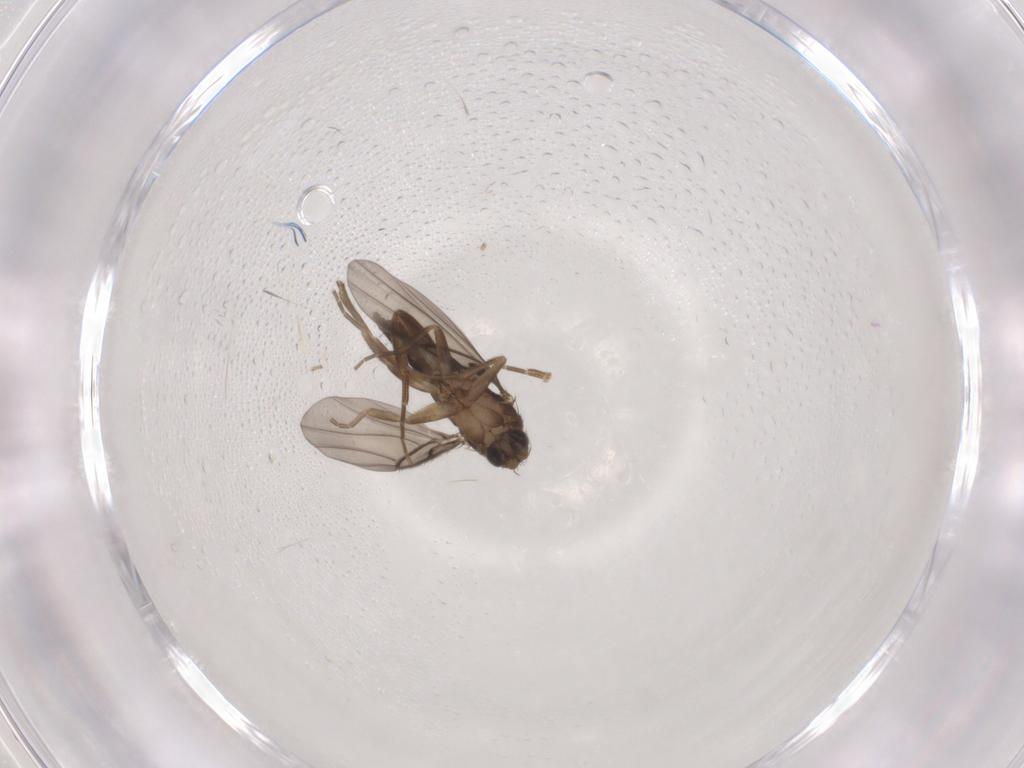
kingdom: Animalia
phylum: Arthropoda
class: Insecta
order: Diptera
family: Phoridae
